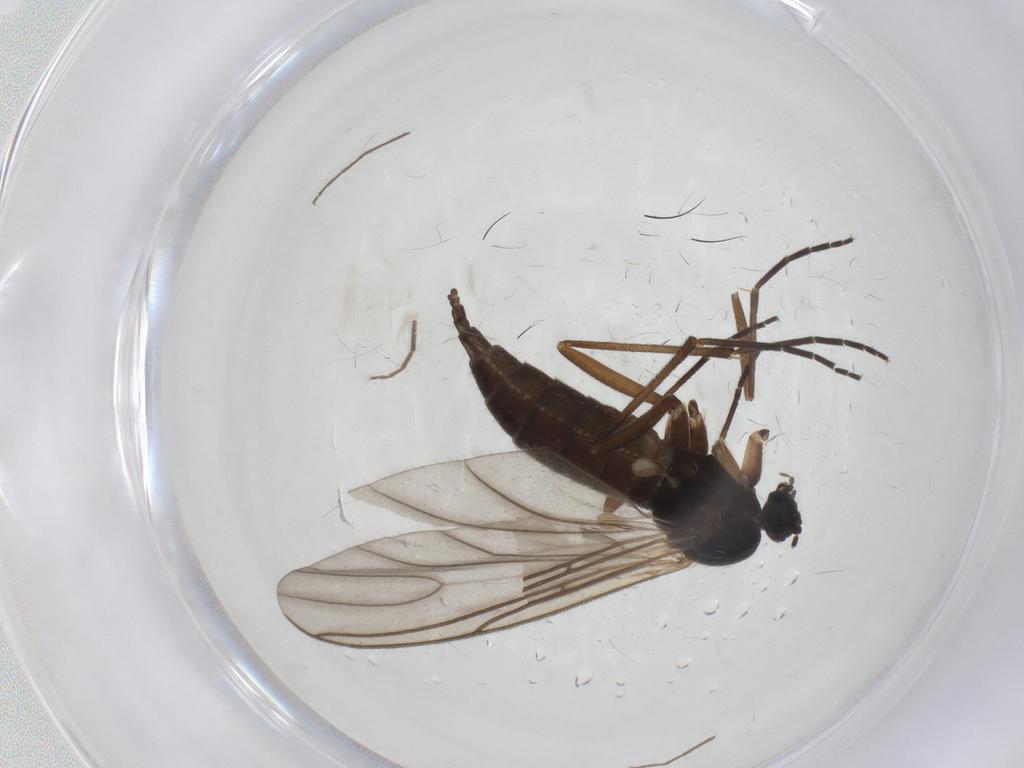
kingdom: Animalia
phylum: Arthropoda
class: Insecta
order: Diptera
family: Sciaridae
